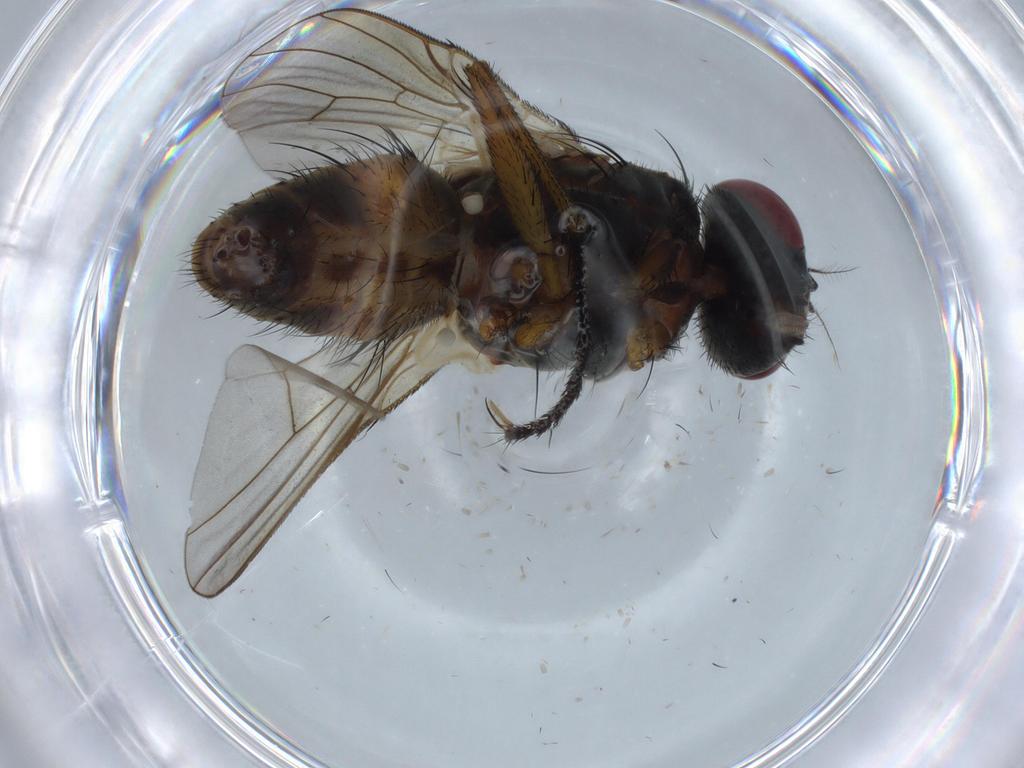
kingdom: Animalia
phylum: Arthropoda
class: Insecta
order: Diptera
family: Muscidae
